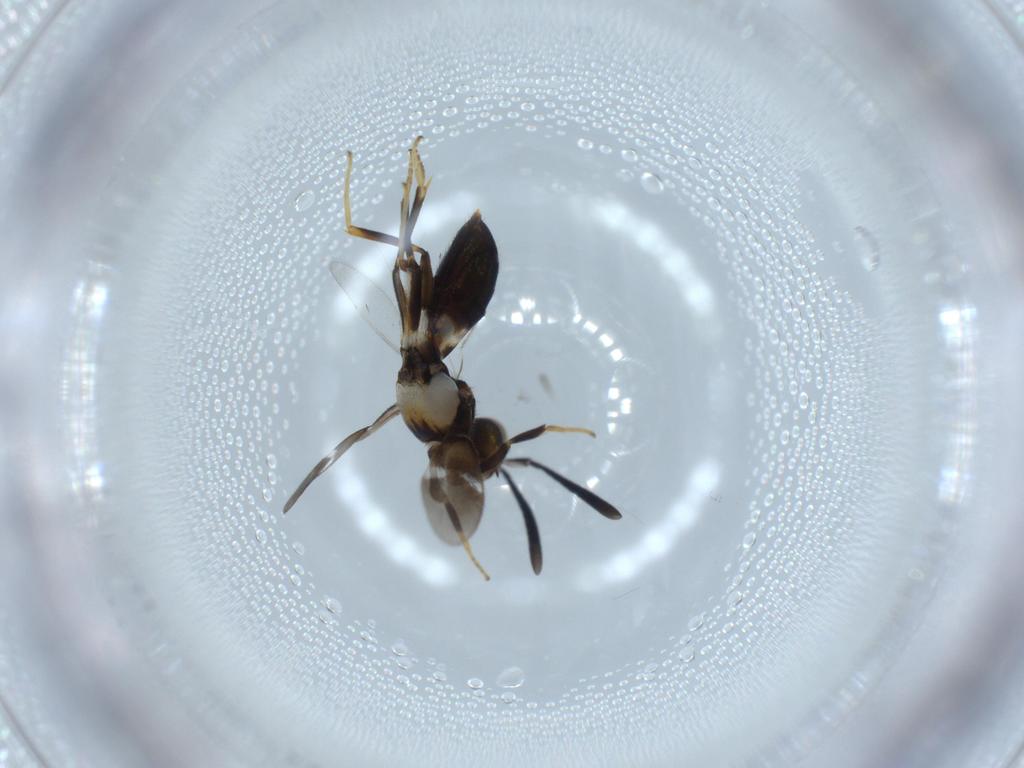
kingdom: Animalia
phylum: Arthropoda
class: Insecta
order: Hymenoptera
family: Eupelmidae
